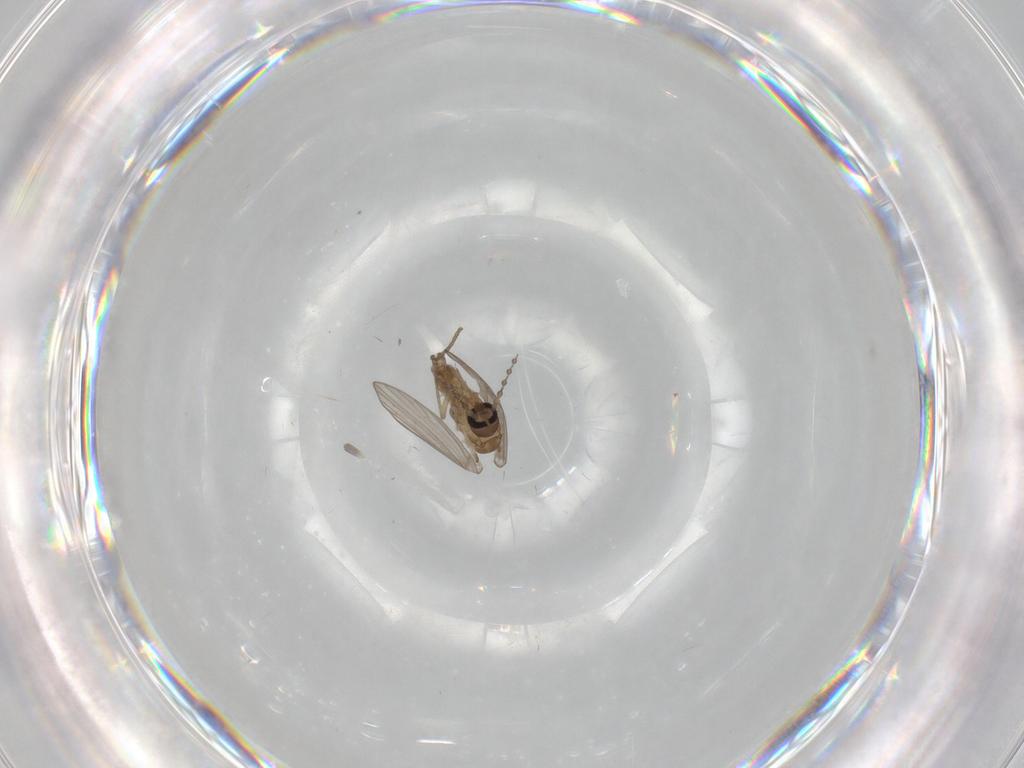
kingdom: Animalia
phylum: Arthropoda
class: Insecta
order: Diptera
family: Psychodidae
